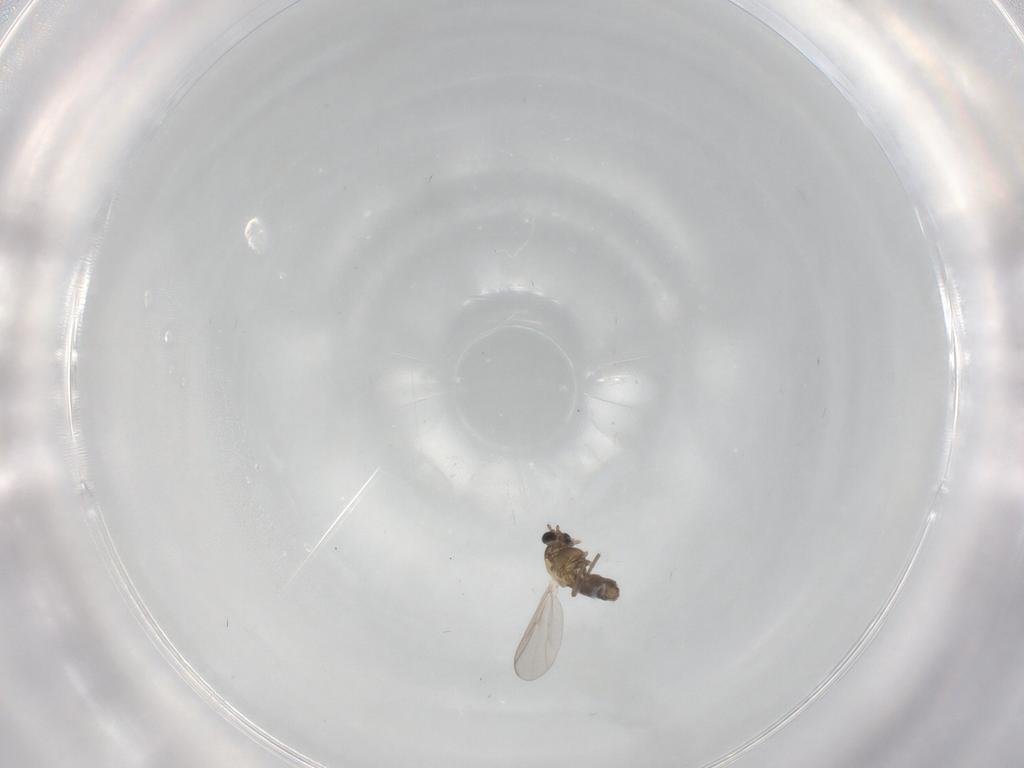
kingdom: Animalia
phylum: Arthropoda
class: Insecta
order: Diptera
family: Chironomidae
